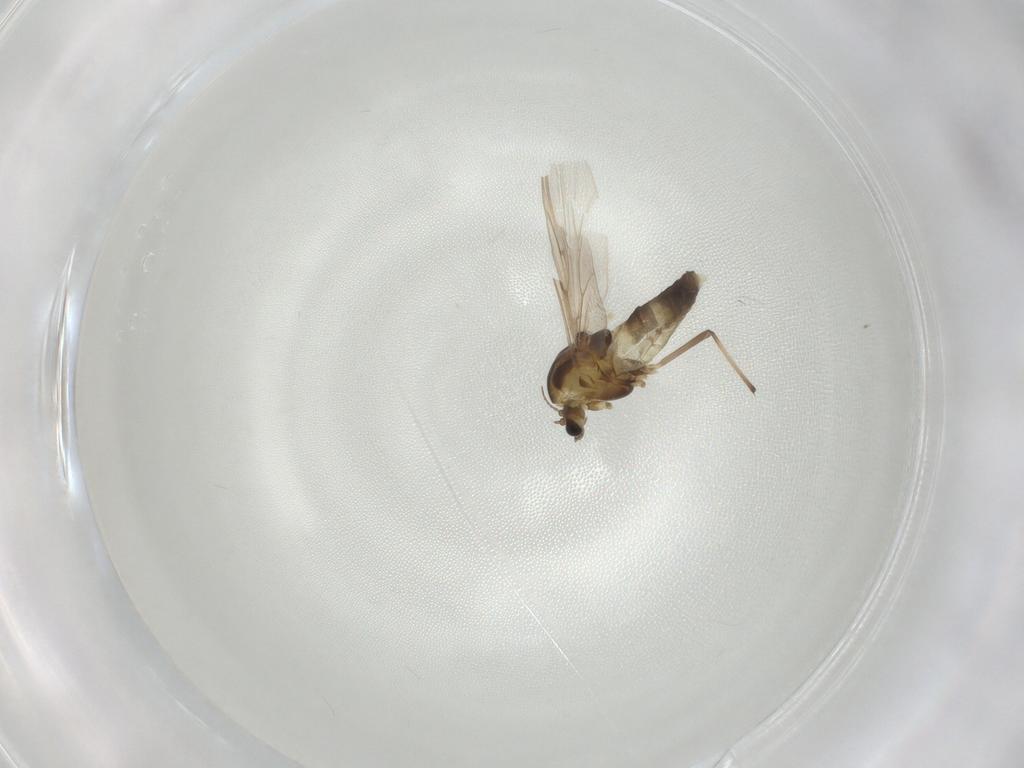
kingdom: Animalia
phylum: Arthropoda
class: Insecta
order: Diptera
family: Chironomidae
